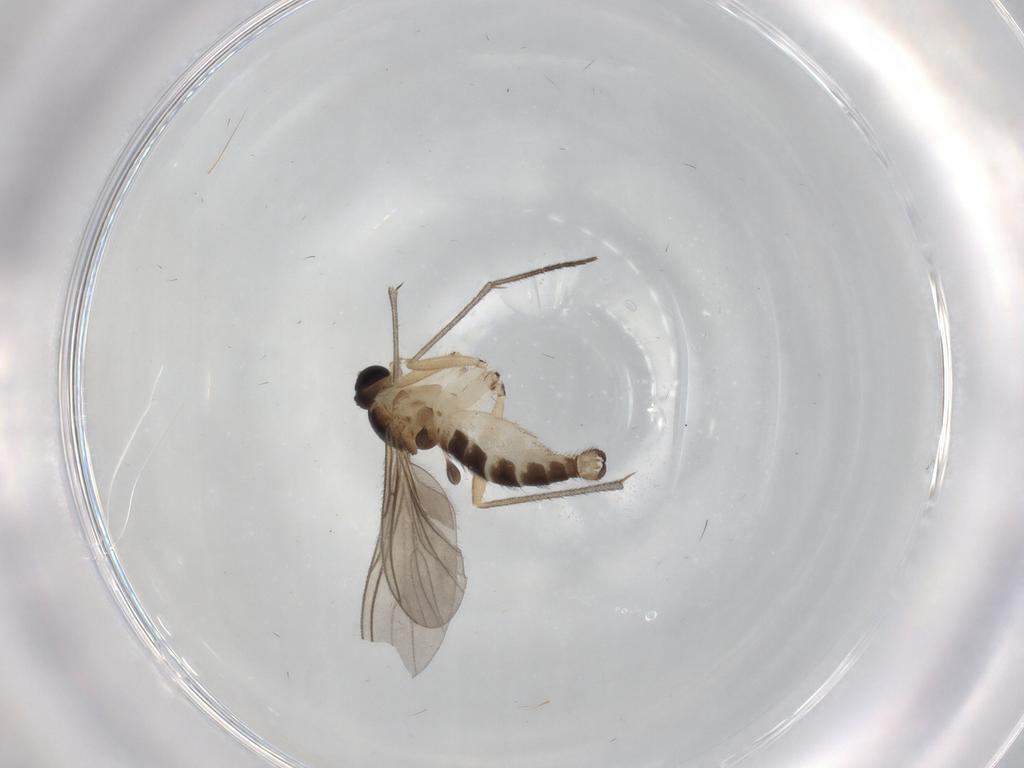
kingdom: Animalia
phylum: Arthropoda
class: Insecta
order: Diptera
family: Sciaridae
